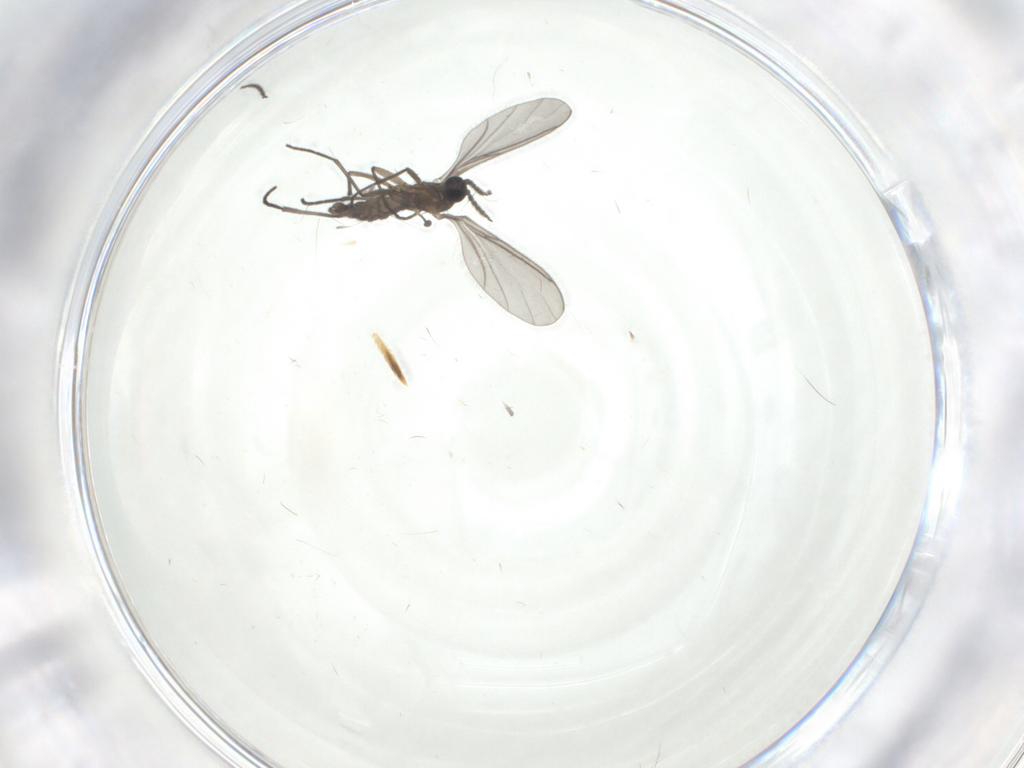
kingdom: Animalia
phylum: Arthropoda
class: Insecta
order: Diptera
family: Sciaridae
